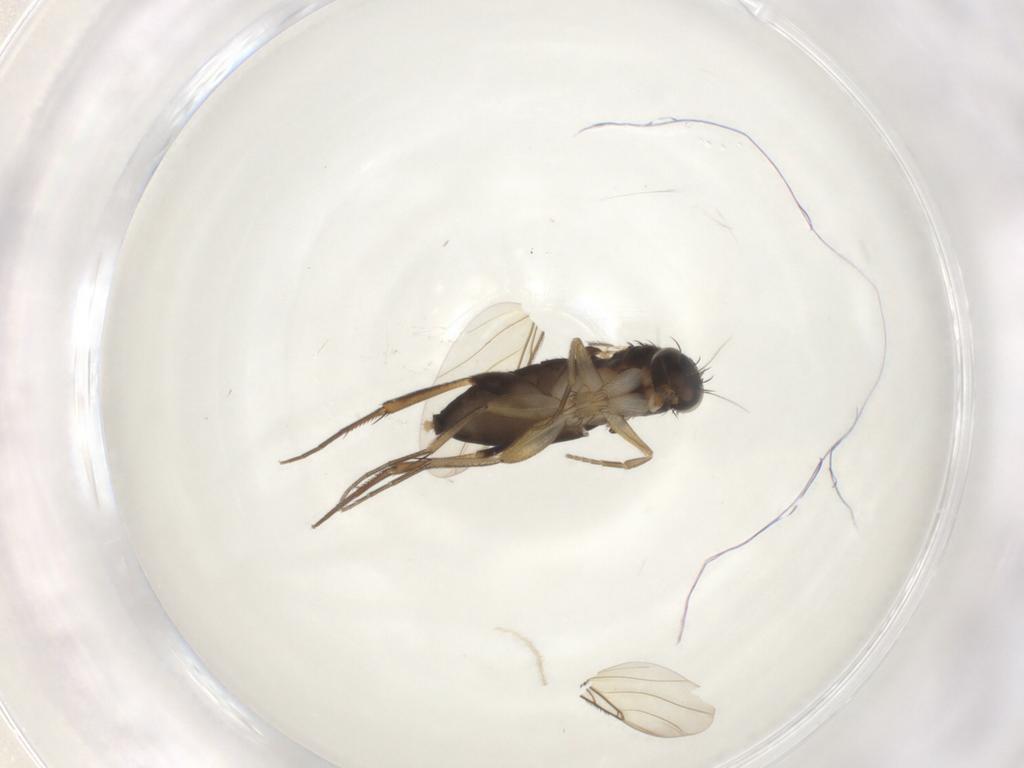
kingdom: Animalia
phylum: Arthropoda
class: Insecta
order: Diptera
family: Phoridae
